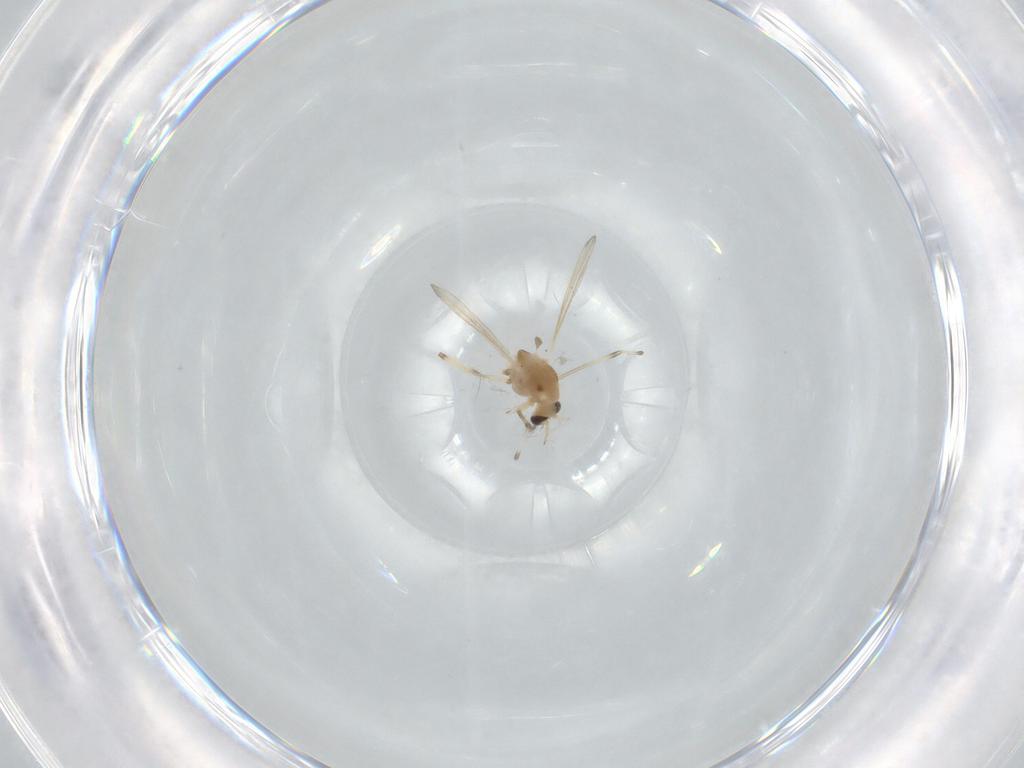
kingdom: Animalia
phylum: Arthropoda
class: Insecta
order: Diptera
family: Chironomidae
